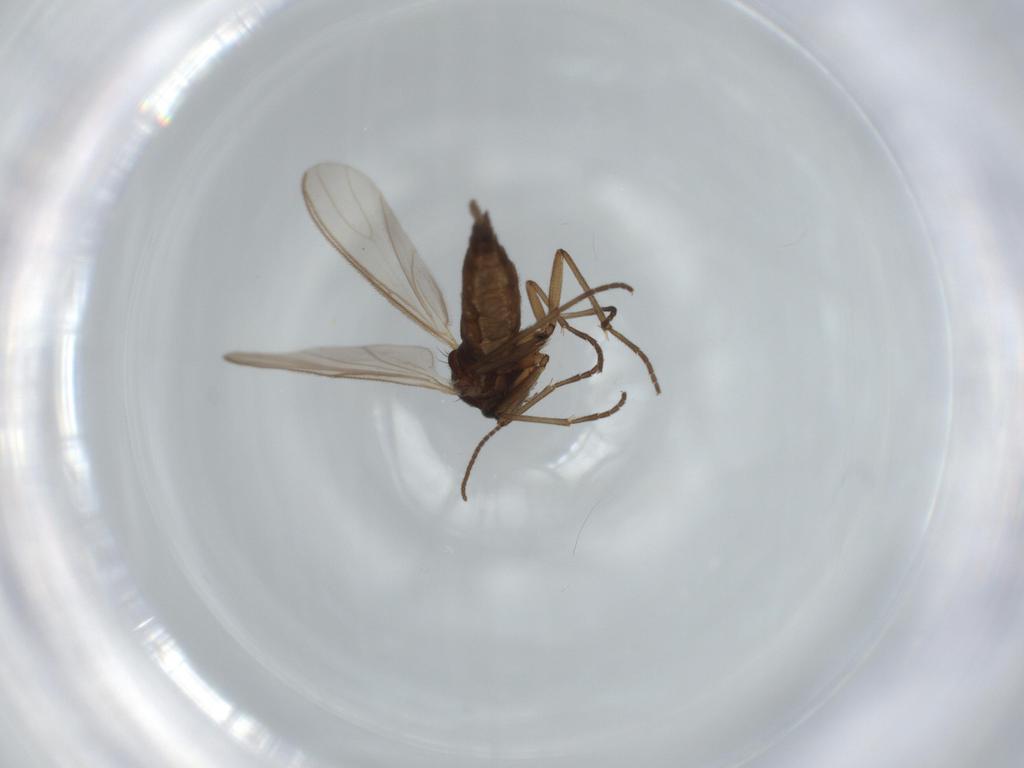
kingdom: Animalia
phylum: Arthropoda
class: Insecta
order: Diptera
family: Sciaridae
